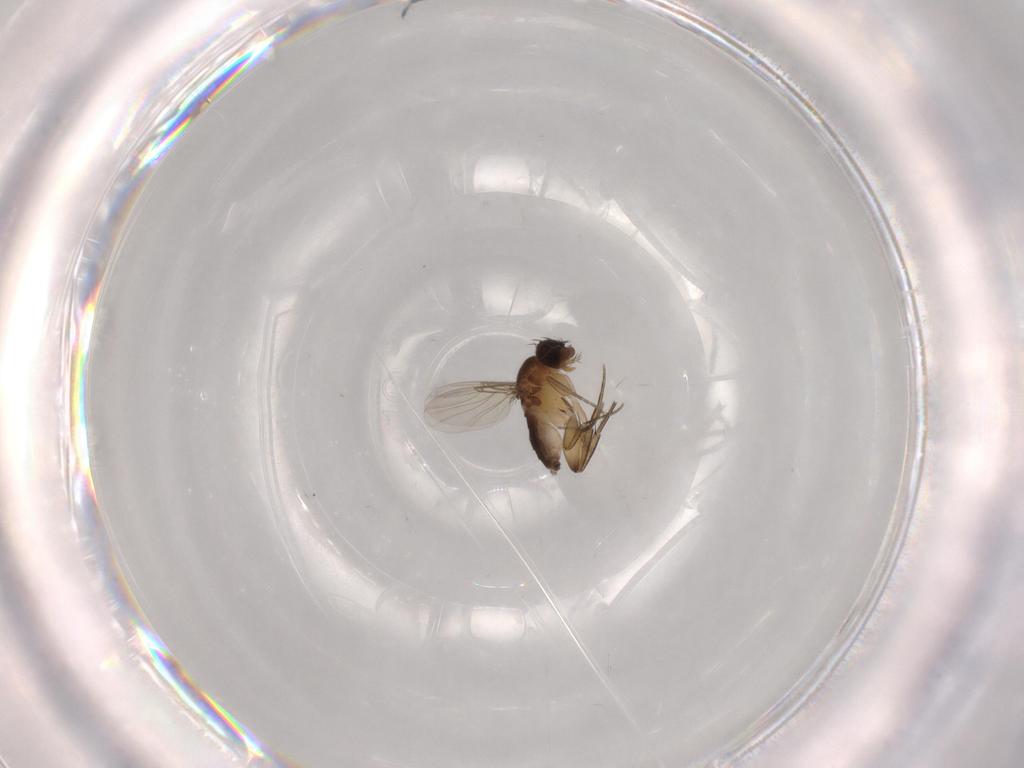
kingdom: Animalia
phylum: Arthropoda
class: Insecta
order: Diptera
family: Phoridae
